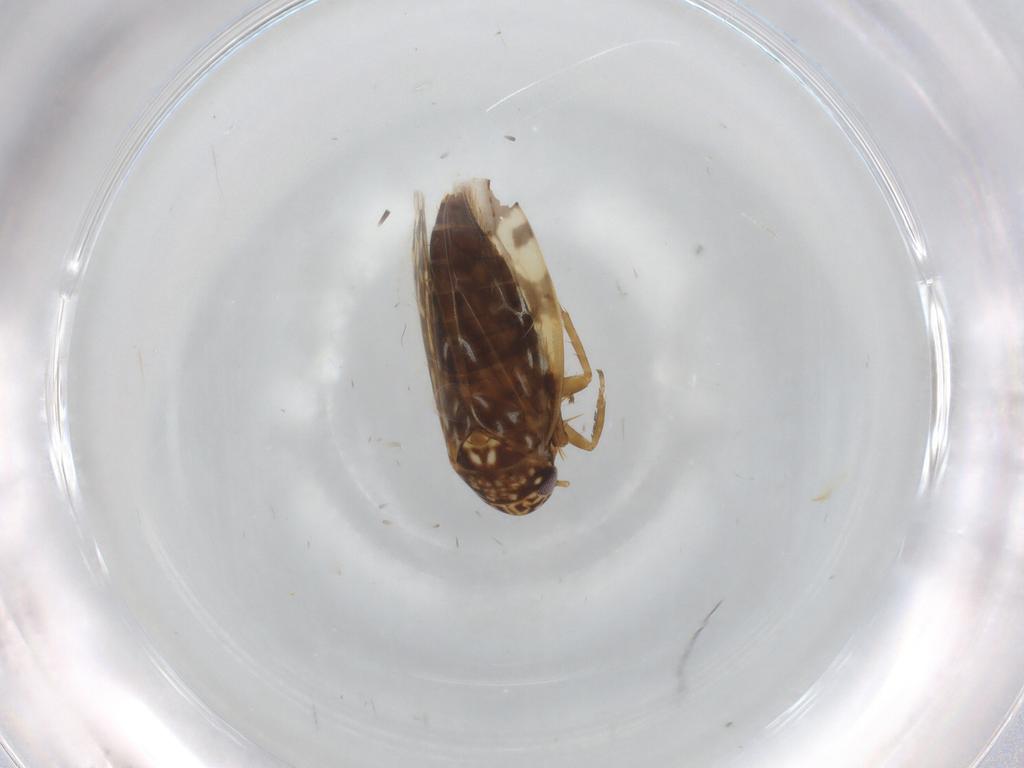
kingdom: Animalia
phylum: Arthropoda
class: Insecta
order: Hemiptera
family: Cicadellidae
